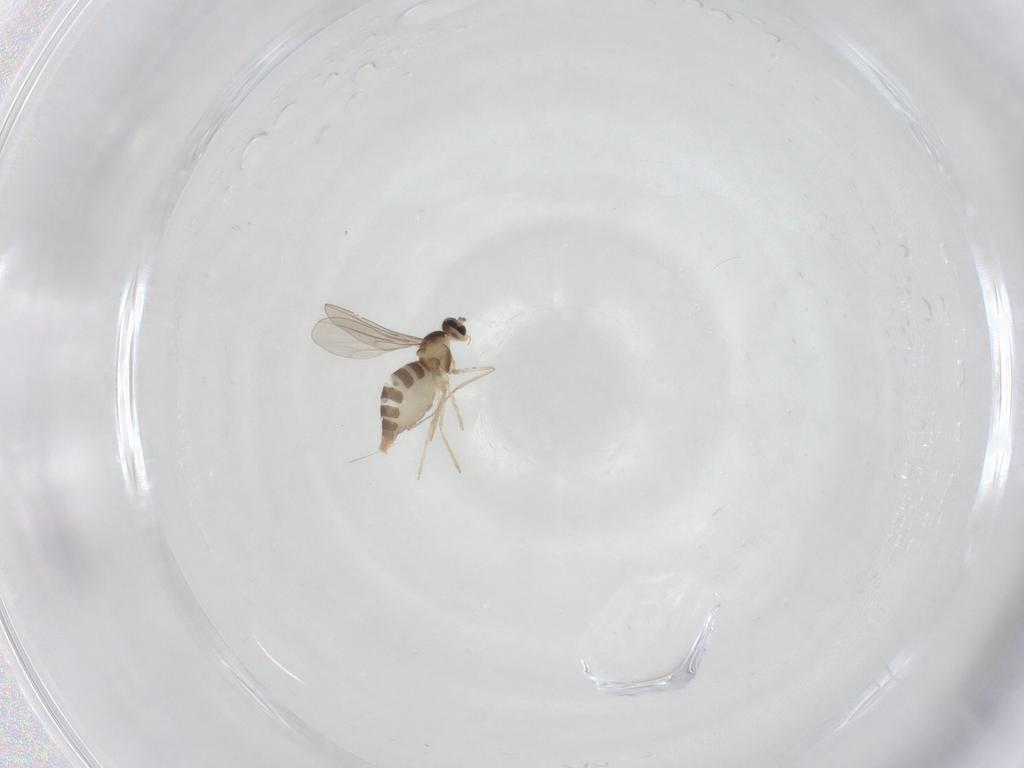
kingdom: Animalia
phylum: Arthropoda
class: Insecta
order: Diptera
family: Cecidomyiidae
